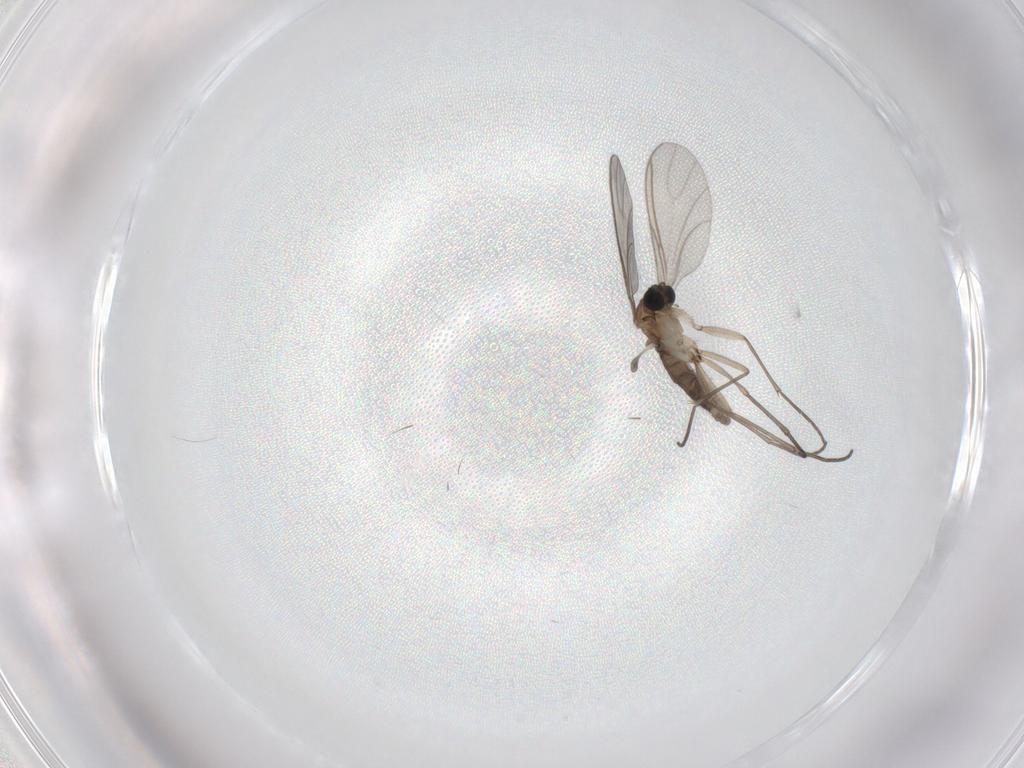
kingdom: Animalia
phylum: Arthropoda
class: Insecta
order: Diptera
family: Sciaridae
